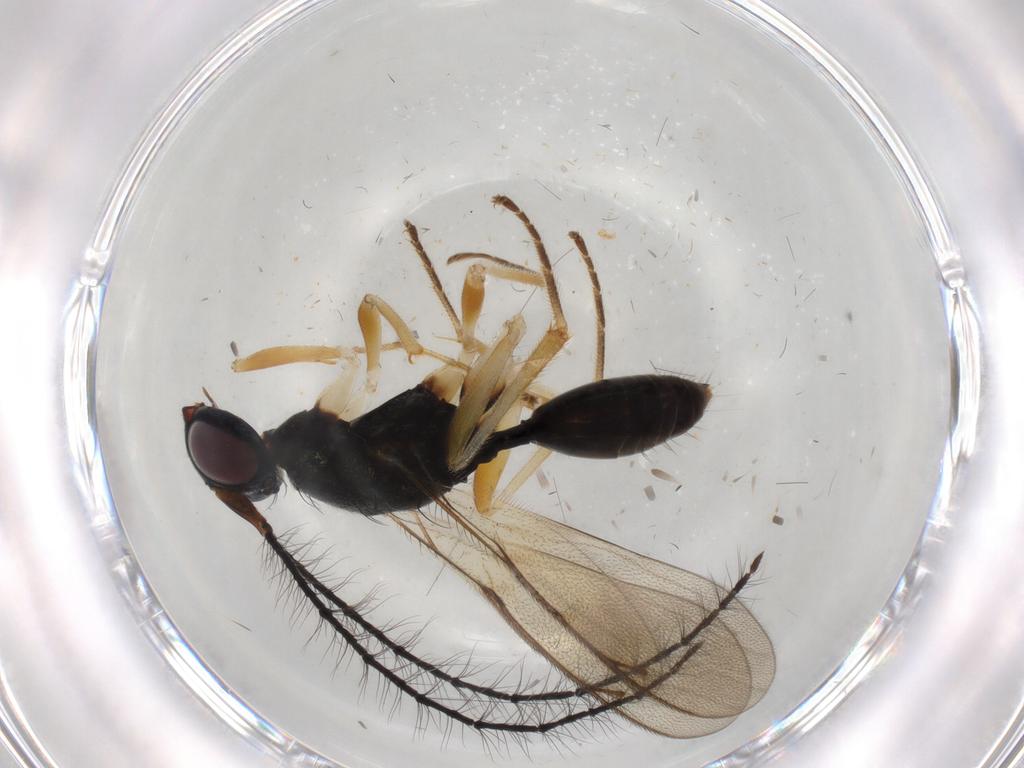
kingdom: Animalia
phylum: Arthropoda
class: Insecta
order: Hymenoptera
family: Diparidae
